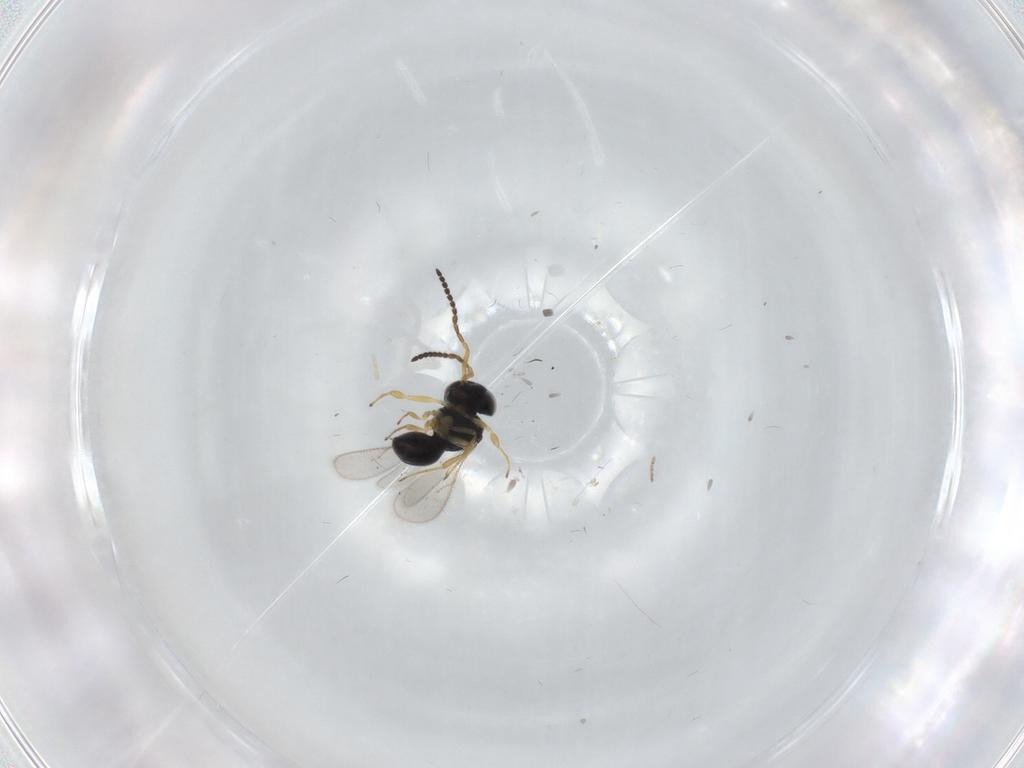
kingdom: Animalia
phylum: Arthropoda
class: Insecta
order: Hymenoptera
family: Scelionidae
